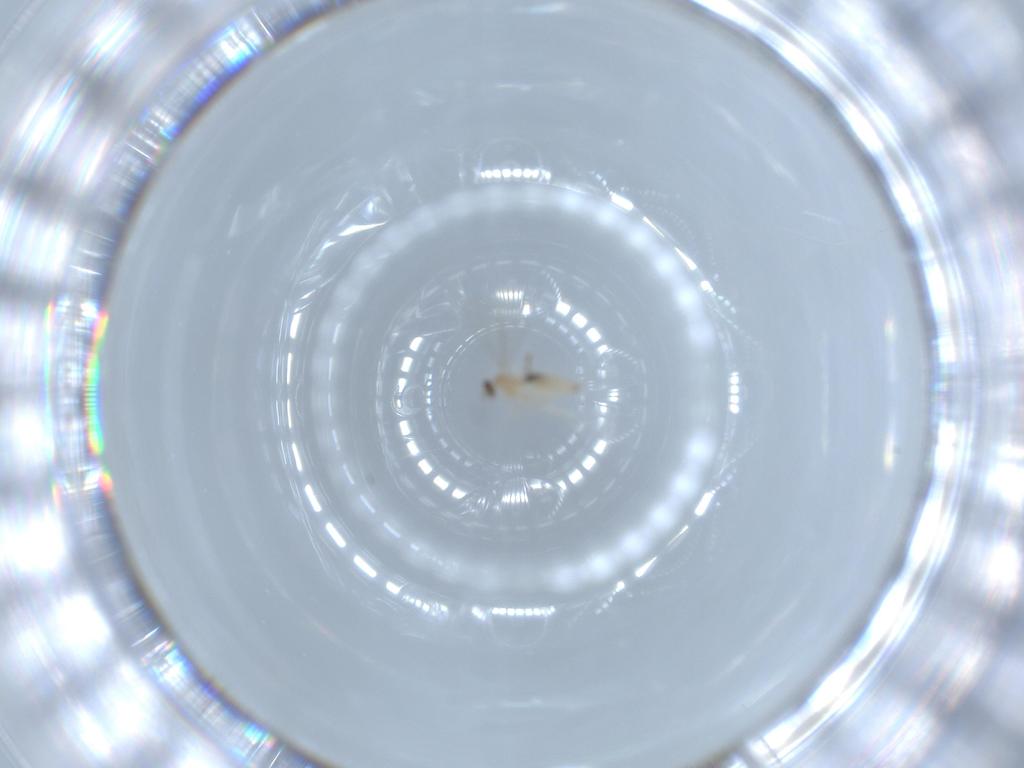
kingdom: Animalia
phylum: Arthropoda
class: Insecta
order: Diptera
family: Cecidomyiidae
